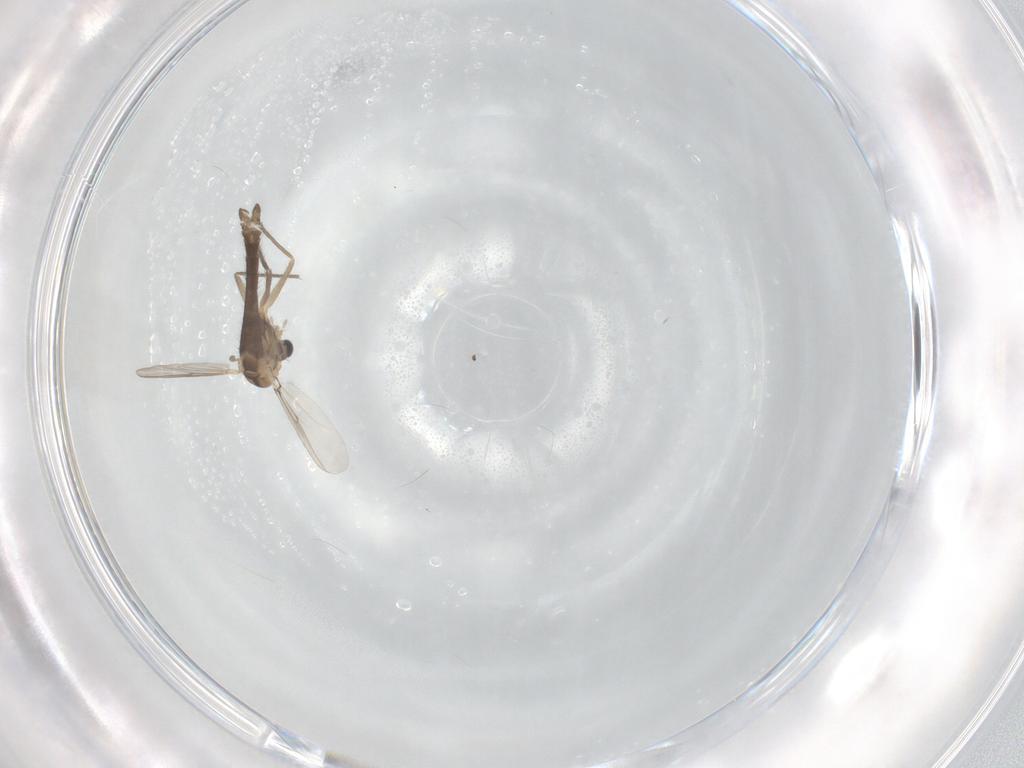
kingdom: Animalia
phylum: Arthropoda
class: Insecta
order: Diptera
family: Chironomidae
